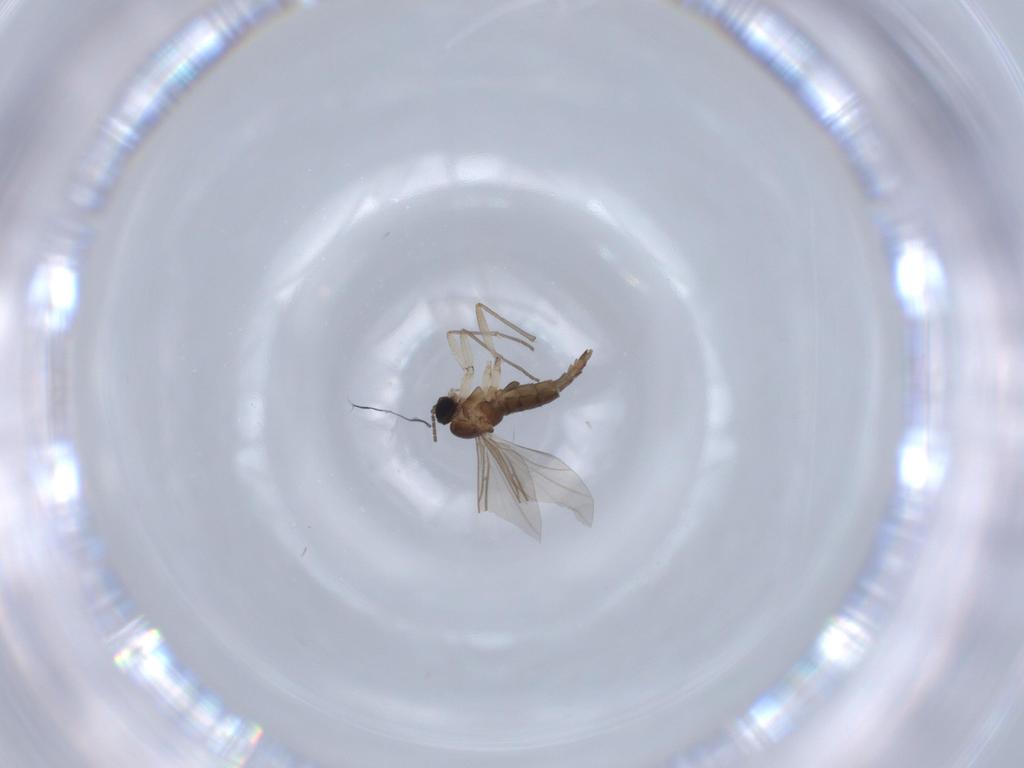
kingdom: Animalia
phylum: Arthropoda
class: Insecta
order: Diptera
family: Sciaridae
